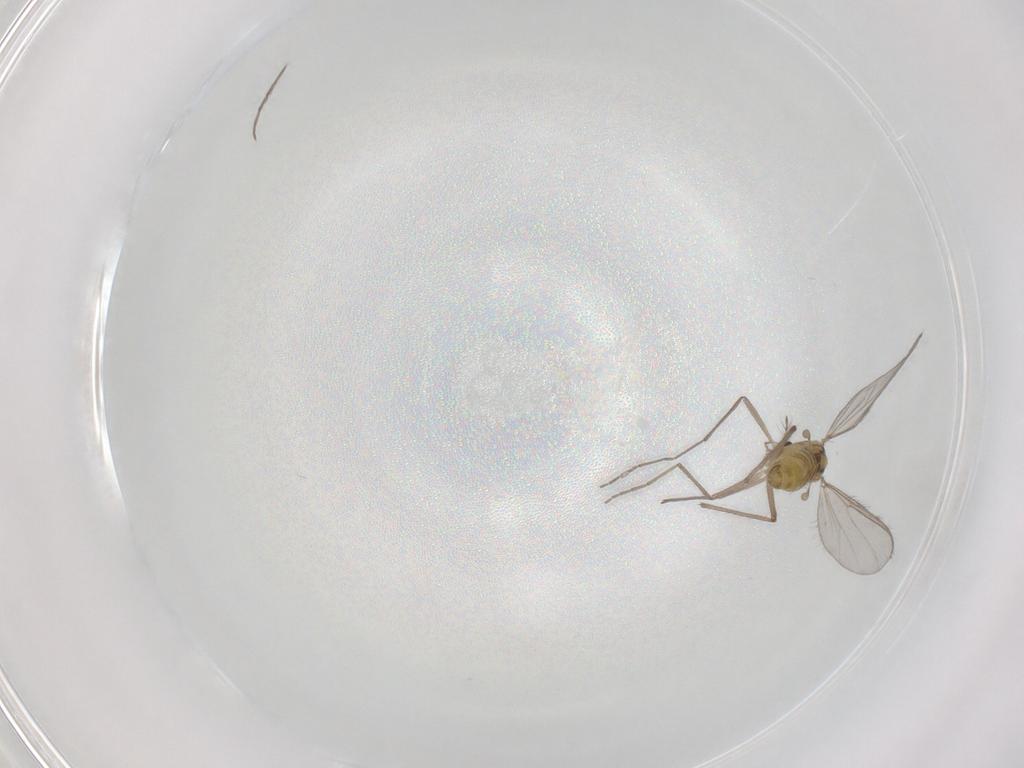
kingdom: Animalia
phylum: Arthropoda
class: Insecta
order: Diptera
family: Chironomidae
